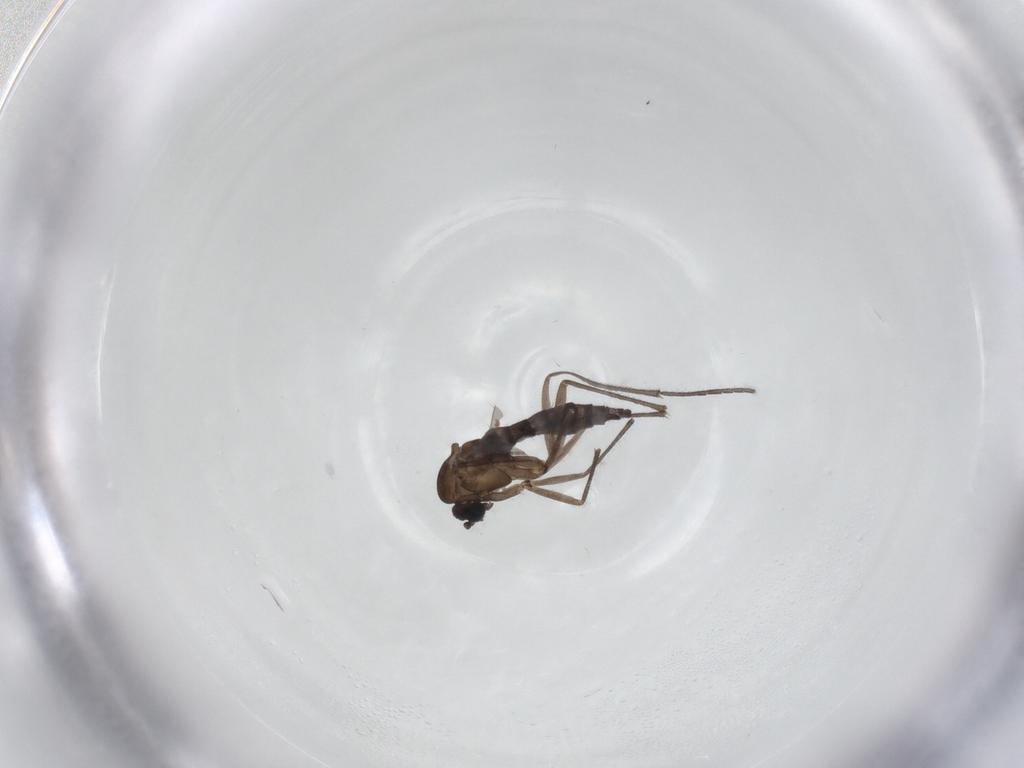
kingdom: Animalia
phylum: Arthropoda
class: Insecta
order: Diptera
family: Sciaridae
